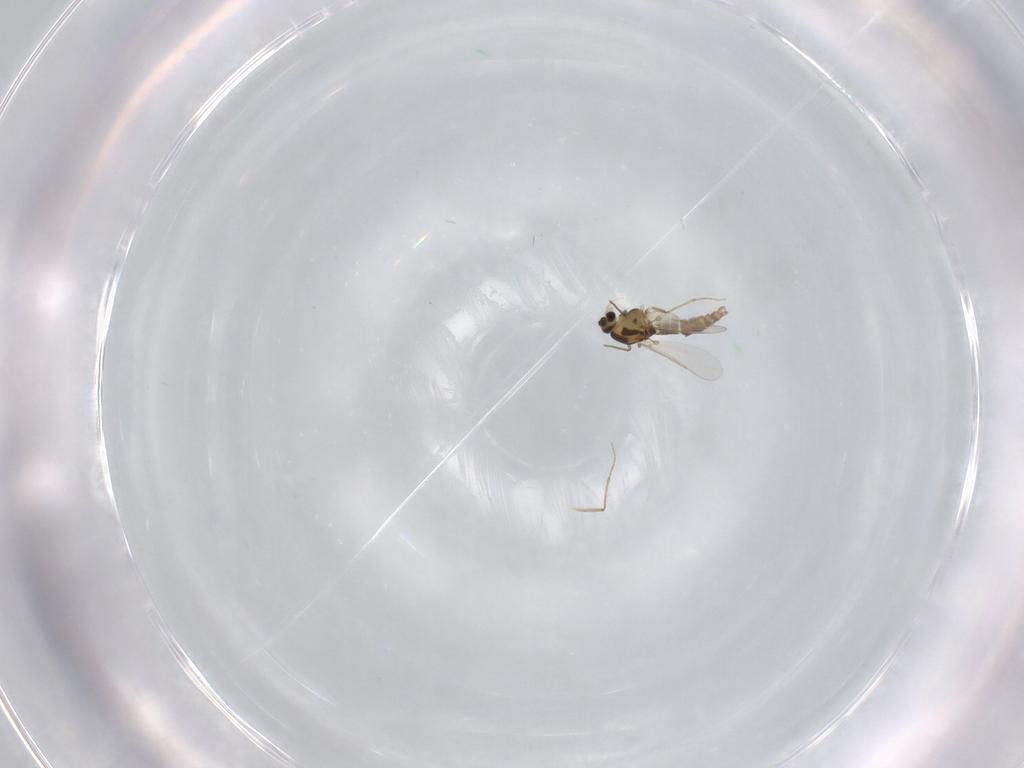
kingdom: Animalia
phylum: Arthropoda
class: Insecta
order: Diptera
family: Chironomidae
